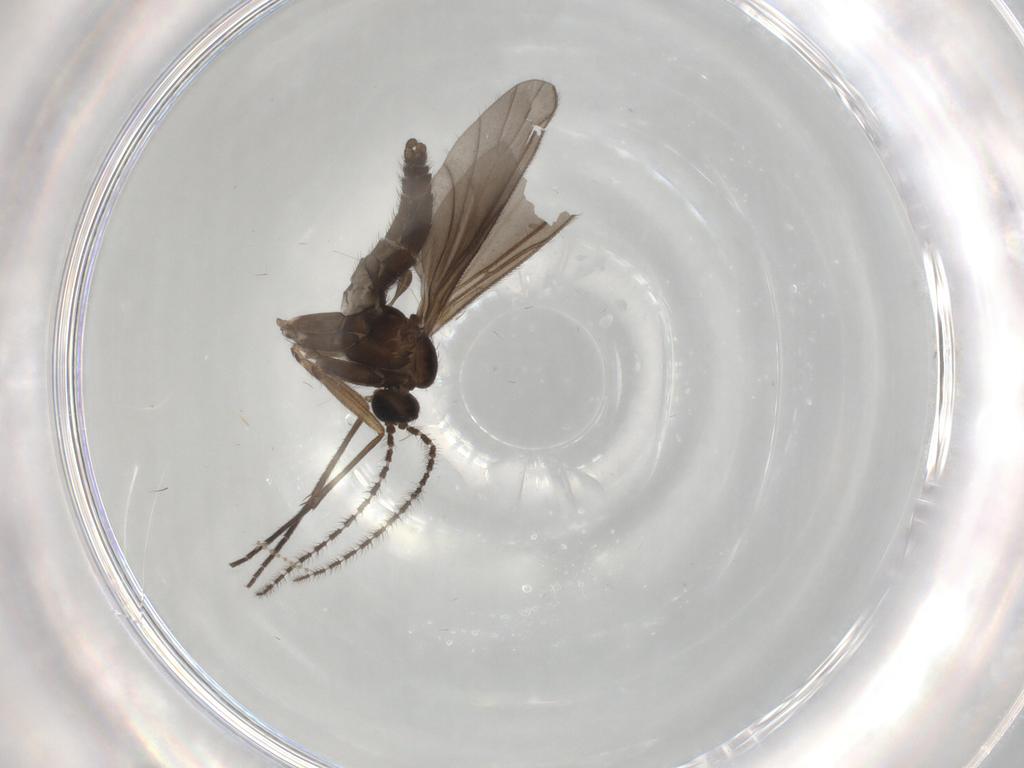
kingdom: Animalia
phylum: Arthropoda
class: Insecta
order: Diptera
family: Sciaridae
